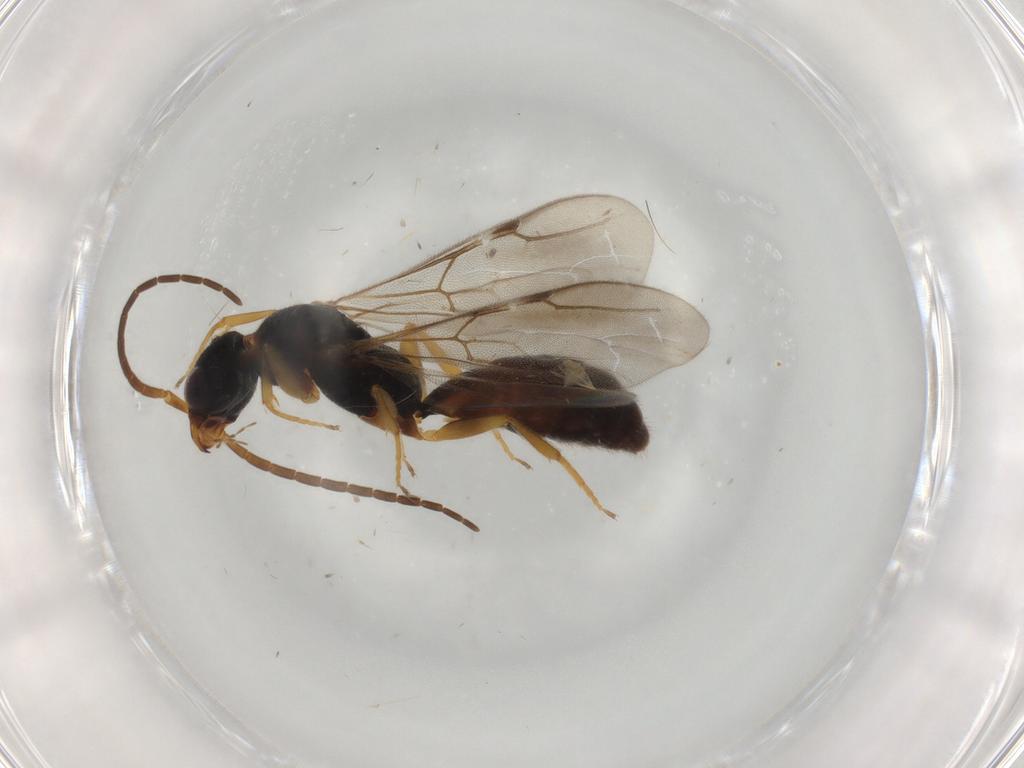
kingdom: Animalia
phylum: Arthropoda
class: Insecta
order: Hymenoptera
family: Bethylidae
